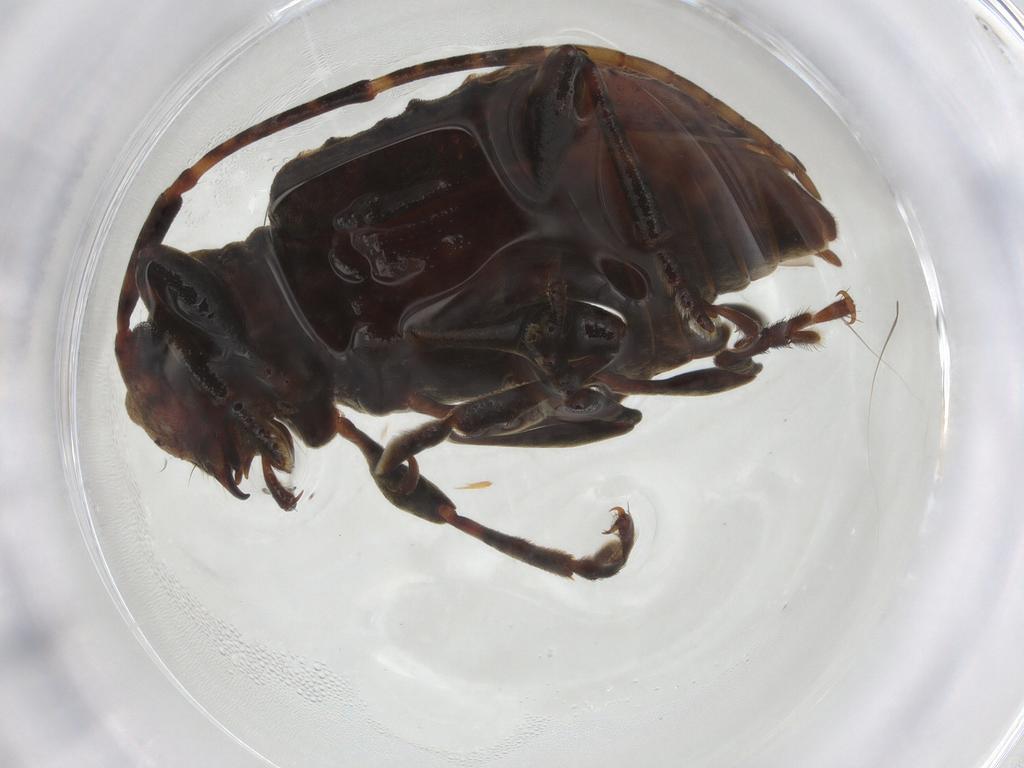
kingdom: Animalia
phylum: Arthropoda
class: Insecta
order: Coleoptera
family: Cerambycidae
